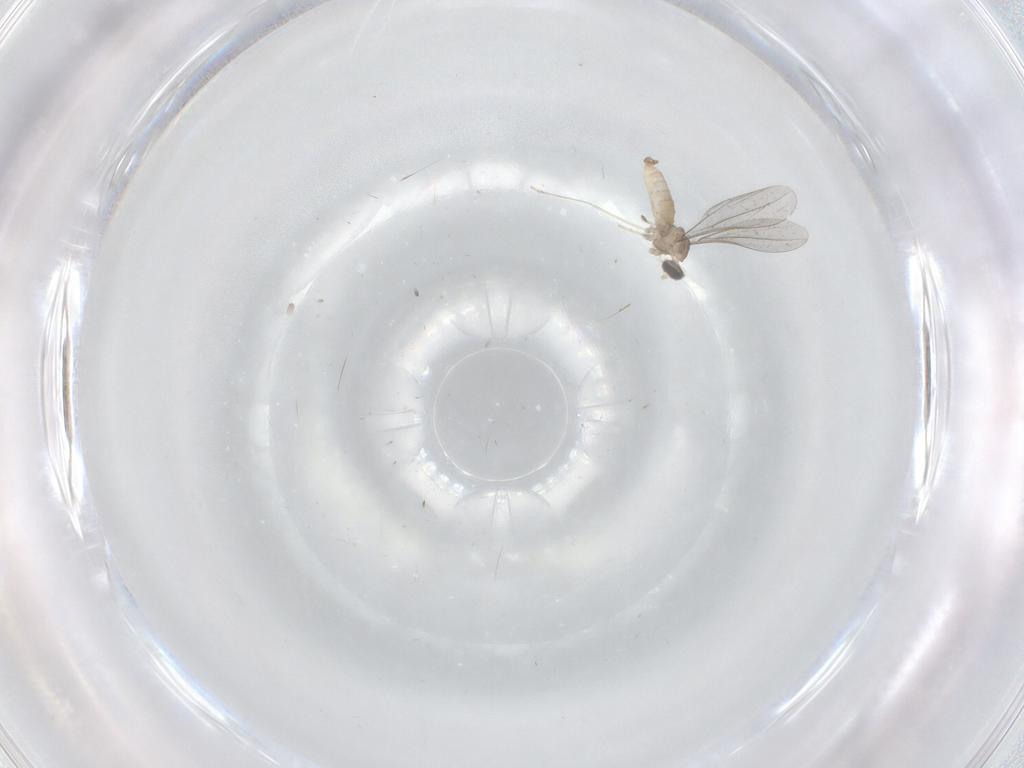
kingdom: Animalia
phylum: Arthropoda
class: Insecta
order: Diptera
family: Cecidomyiidae
